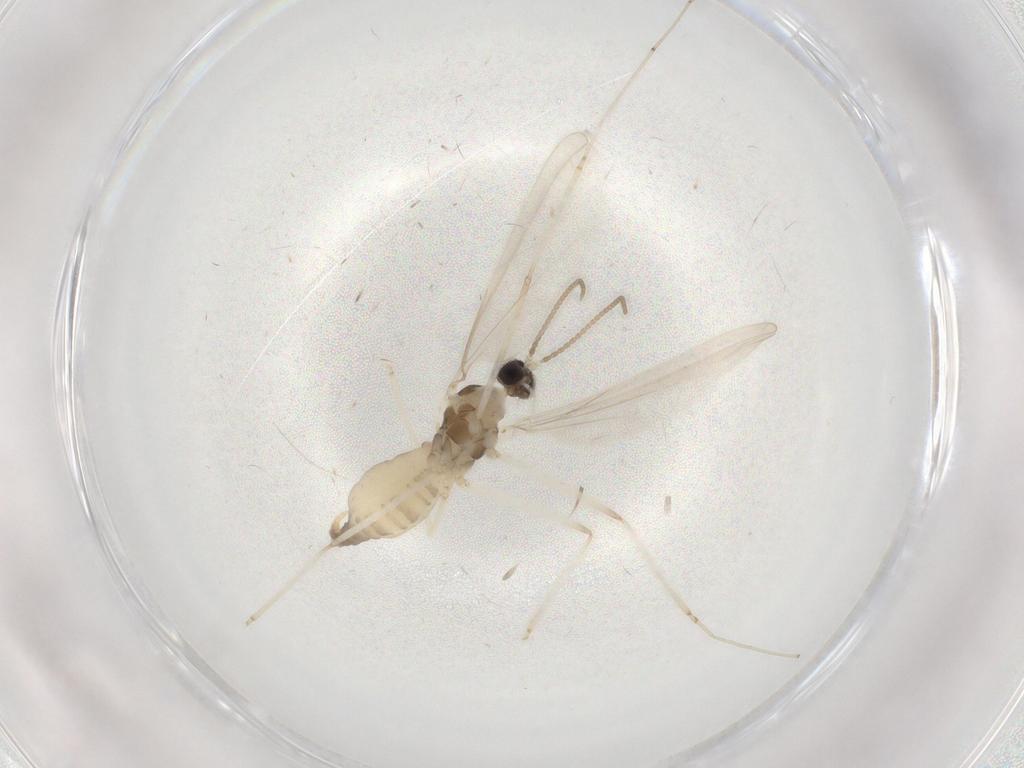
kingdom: Animalia
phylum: Arthropoda
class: Insecta
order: Diptera
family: Cecidomyiidae
